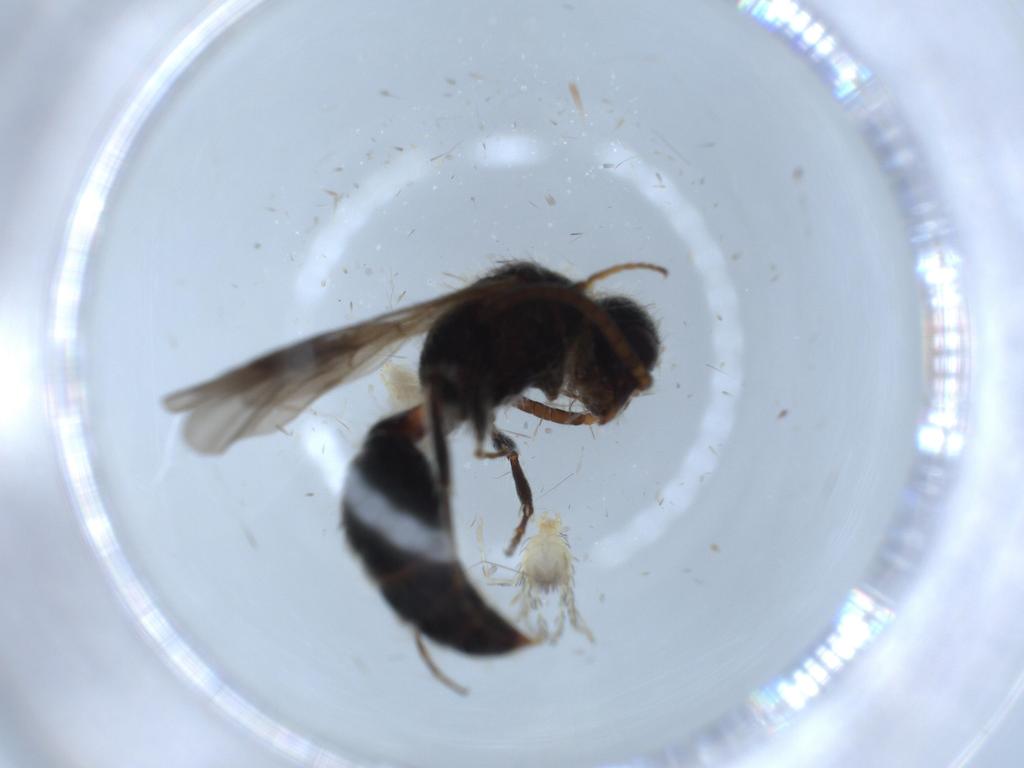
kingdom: Animalia
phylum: Arthropoda
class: Insecta
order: Hymenoptera
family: Mutillidae
